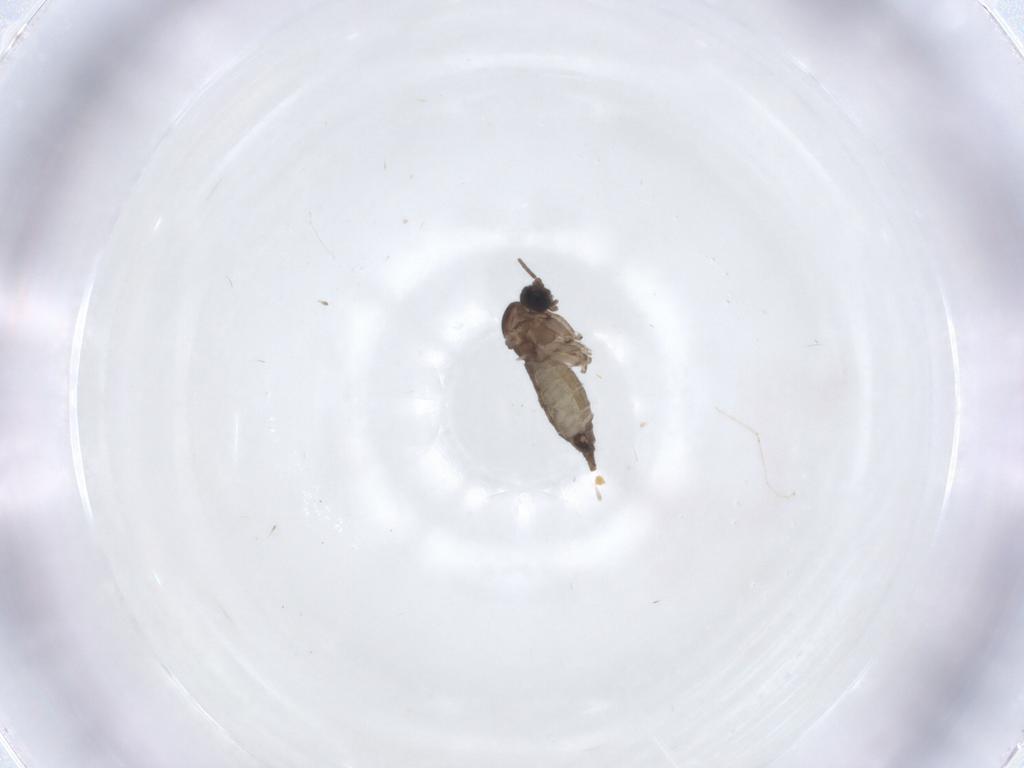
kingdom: Animalia
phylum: Arthropoda
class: Insecta
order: Diptera
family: Sciaridae
